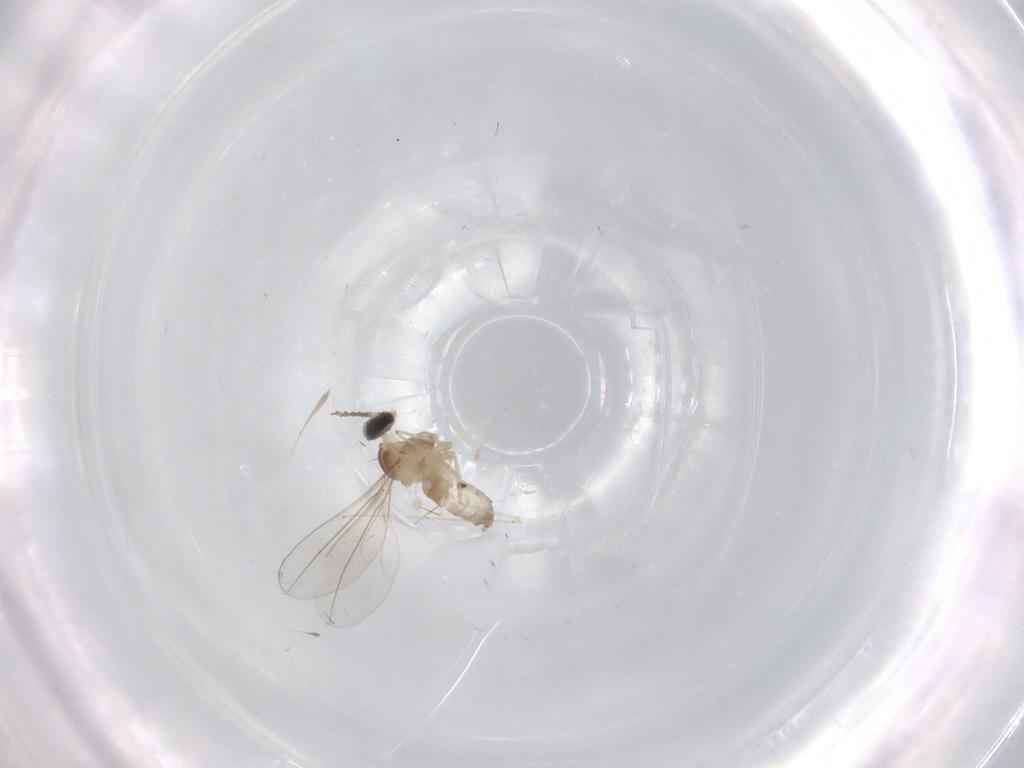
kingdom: Animalia
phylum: Arthropoda
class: Insecta
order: Diptera
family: Cecidomyiidae
